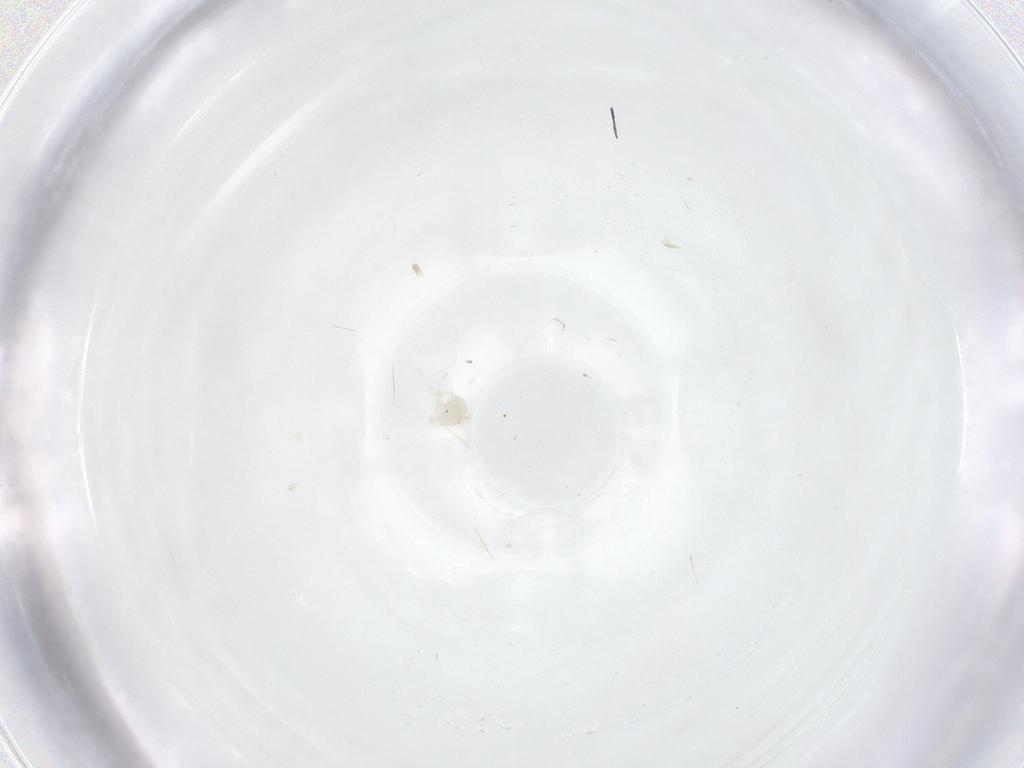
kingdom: Animalia
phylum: Arthropoda
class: Arachnida
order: Trombidiformes
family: Anystidae
